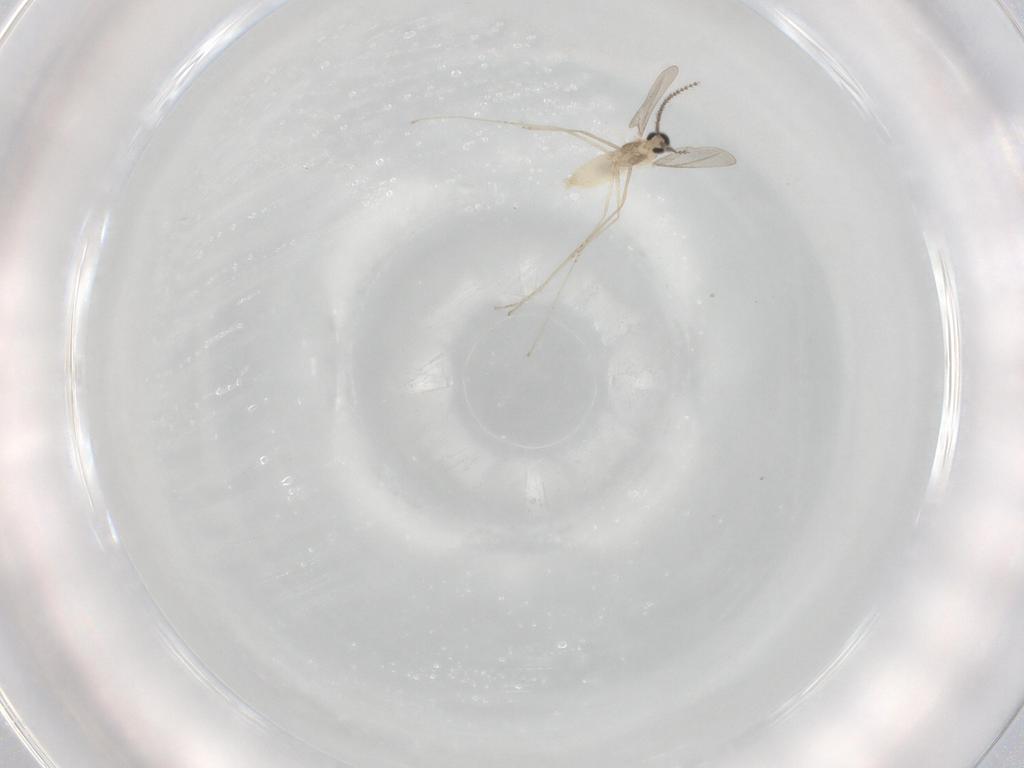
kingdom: Animalia
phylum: Arthropoda
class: Insecta
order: Diptera
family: Cecidomyiidae
